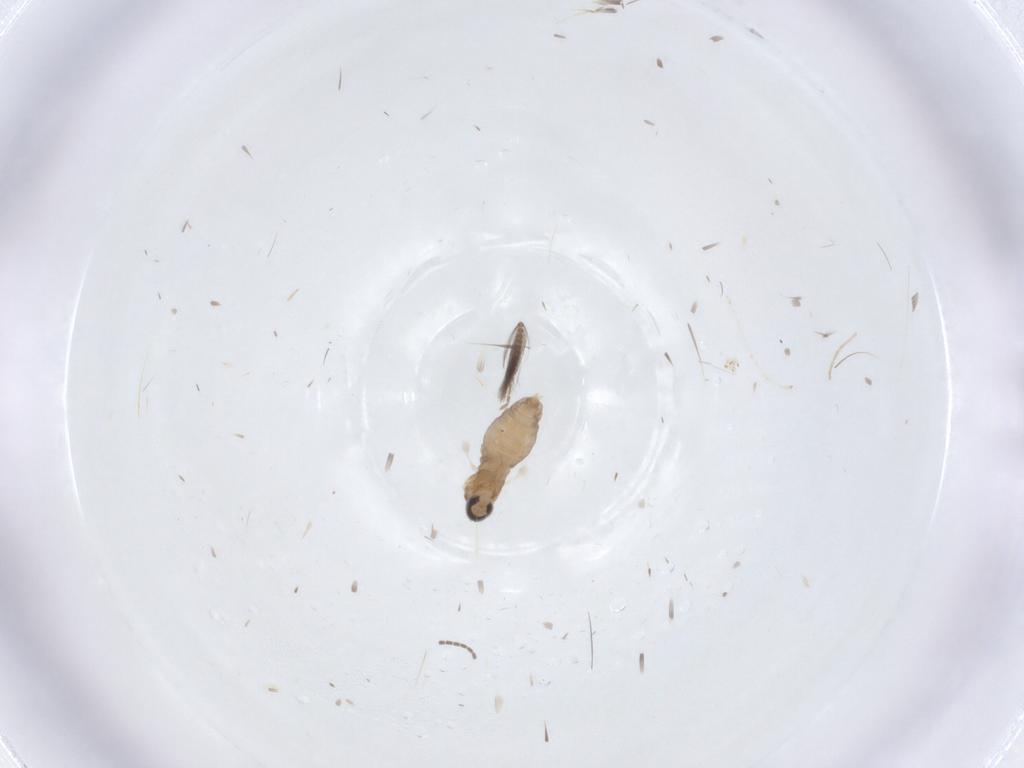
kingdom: Animalia
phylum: Arthropoda
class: Insecta
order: Diptera
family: Cecidomyiidae
